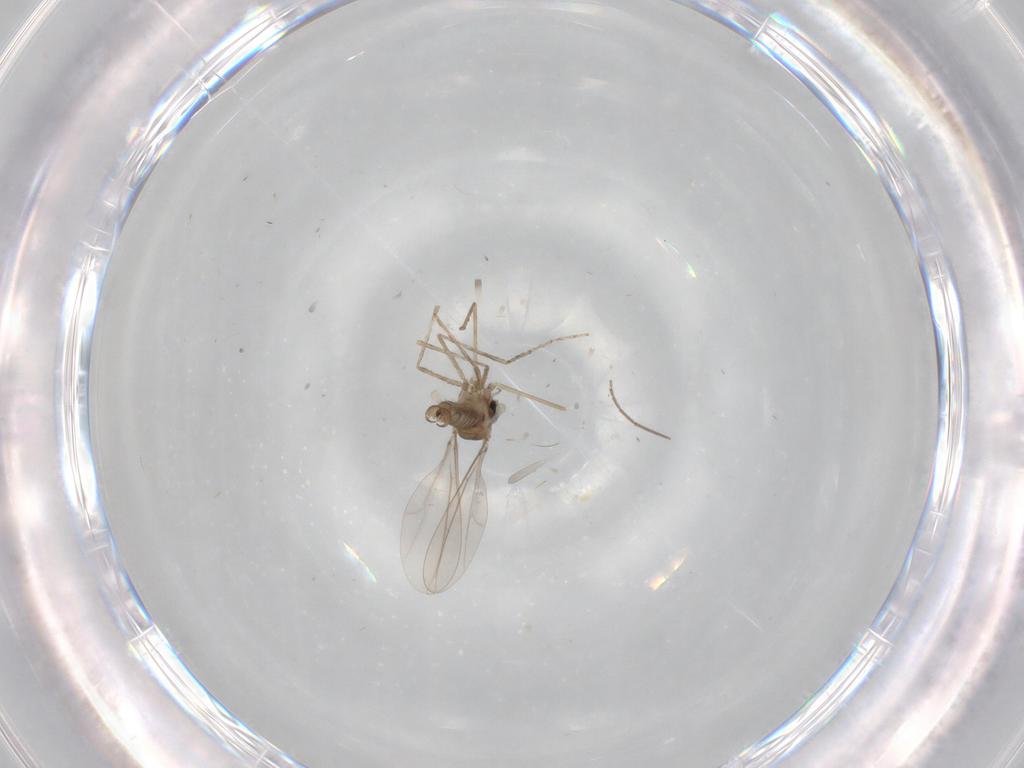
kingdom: Animalia
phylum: Arthropoda
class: Insecta
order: Diptera
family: Cecidomyiidae
